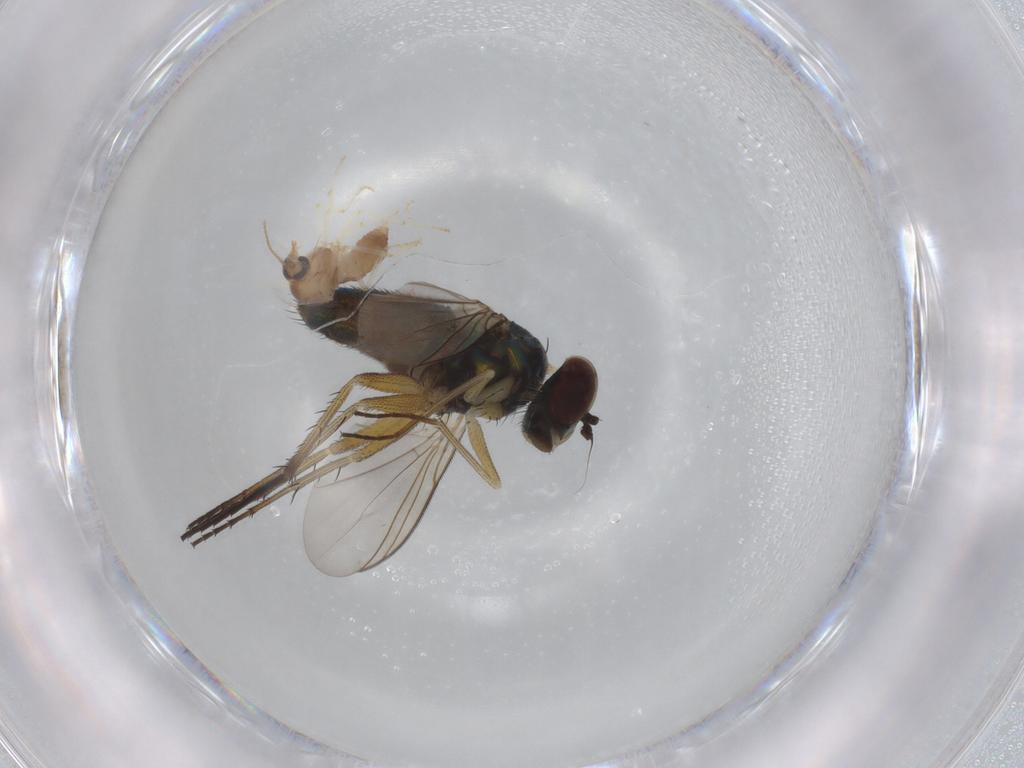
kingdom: Animalia
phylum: Arthropoda
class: Insecta
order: Diptera
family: Dolichopodidae
